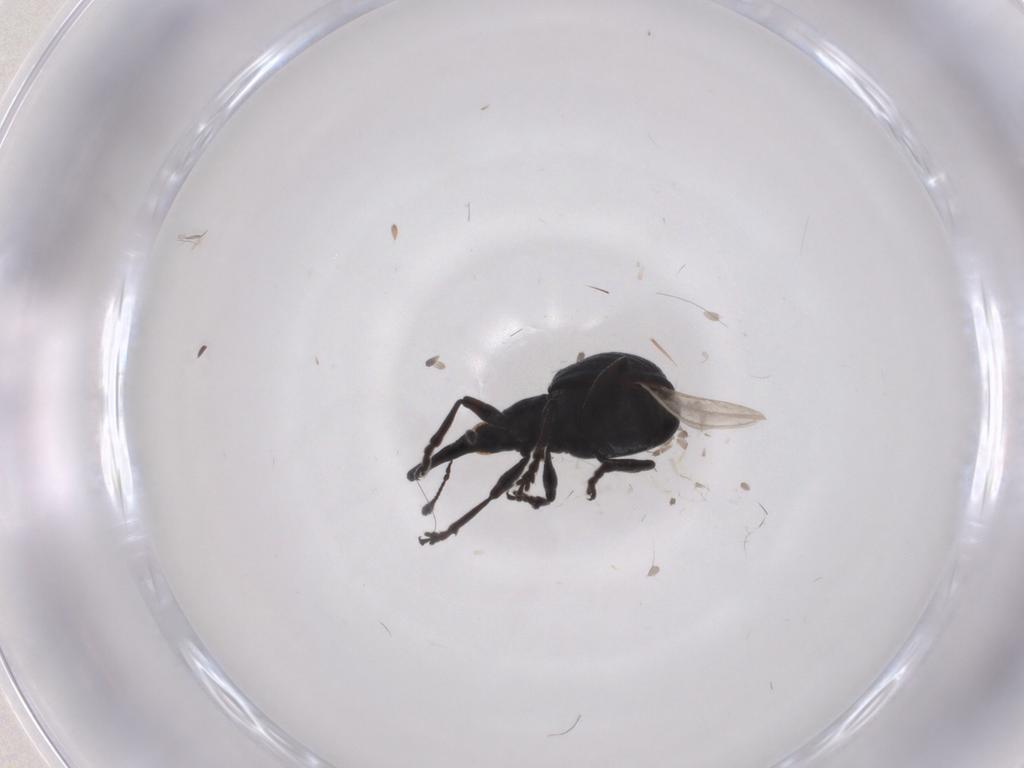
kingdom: Animalia
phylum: Arthropoda
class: Insecta
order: Coleoptera
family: Brentidae
